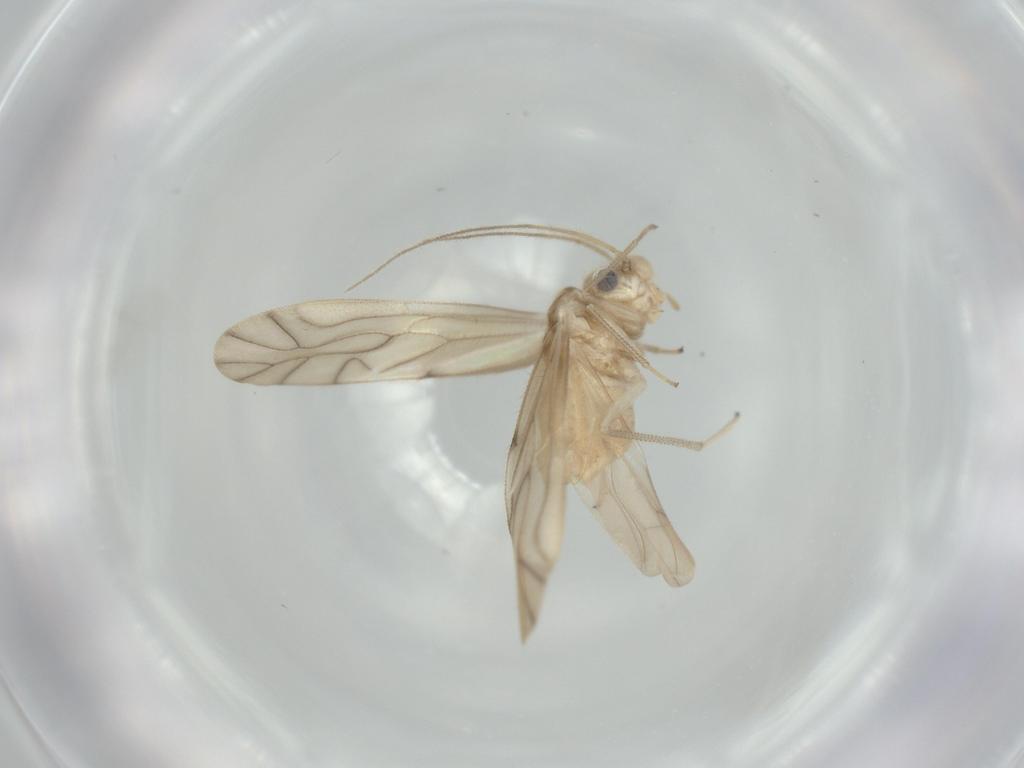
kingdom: Animalia
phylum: Arthropoda
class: Insecta
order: Psocodea
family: Caeciliusidae
